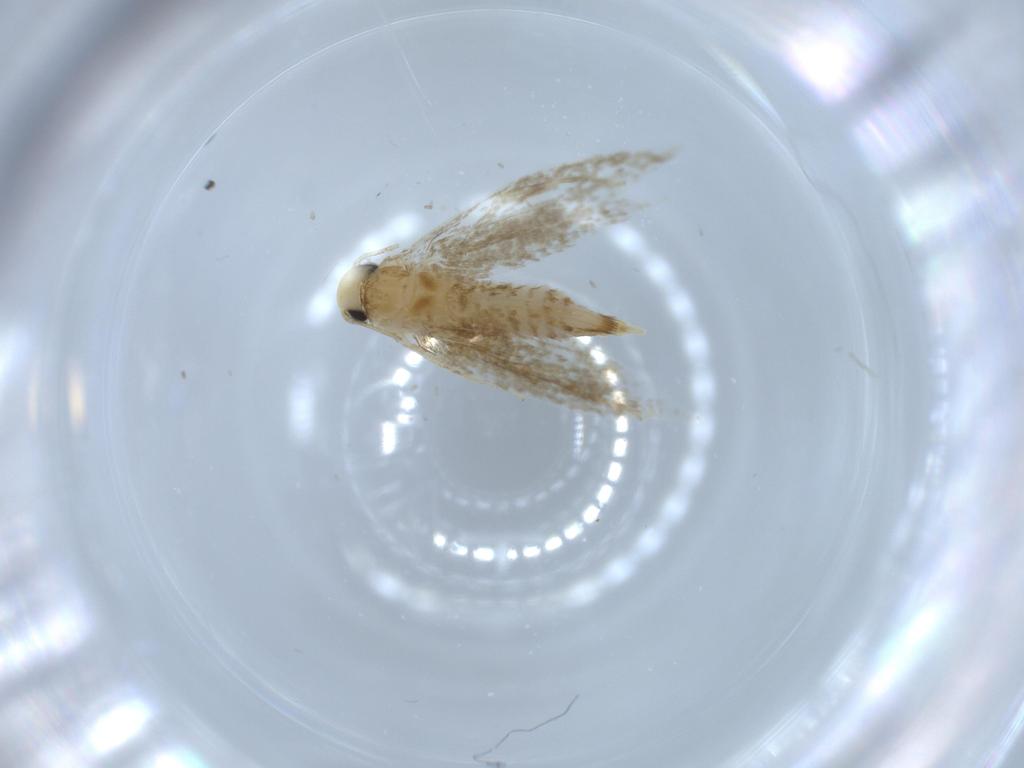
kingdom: Animalia
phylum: Arthropoda
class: Insecta
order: Lepidoptera
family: Tineidae
